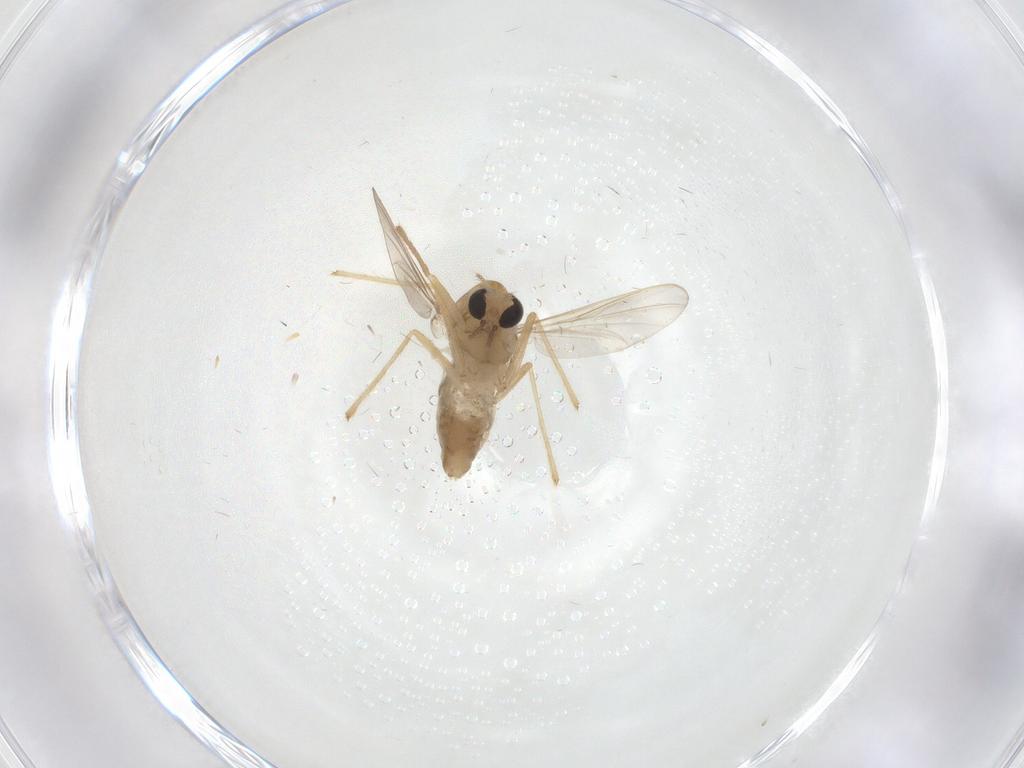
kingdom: Animalia
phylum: Arthropoda
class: Insecta
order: Diptera
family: Chironomidae
